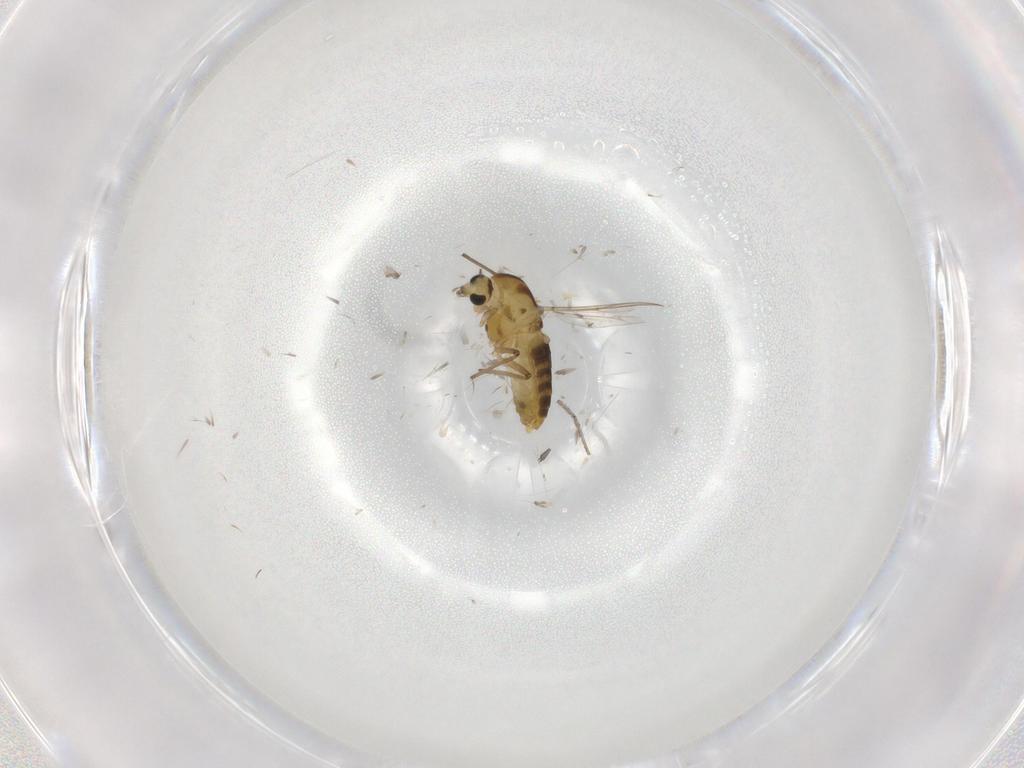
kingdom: Animalia
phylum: Arthropoda
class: Insecta
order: Diptera
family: Chironomidae
